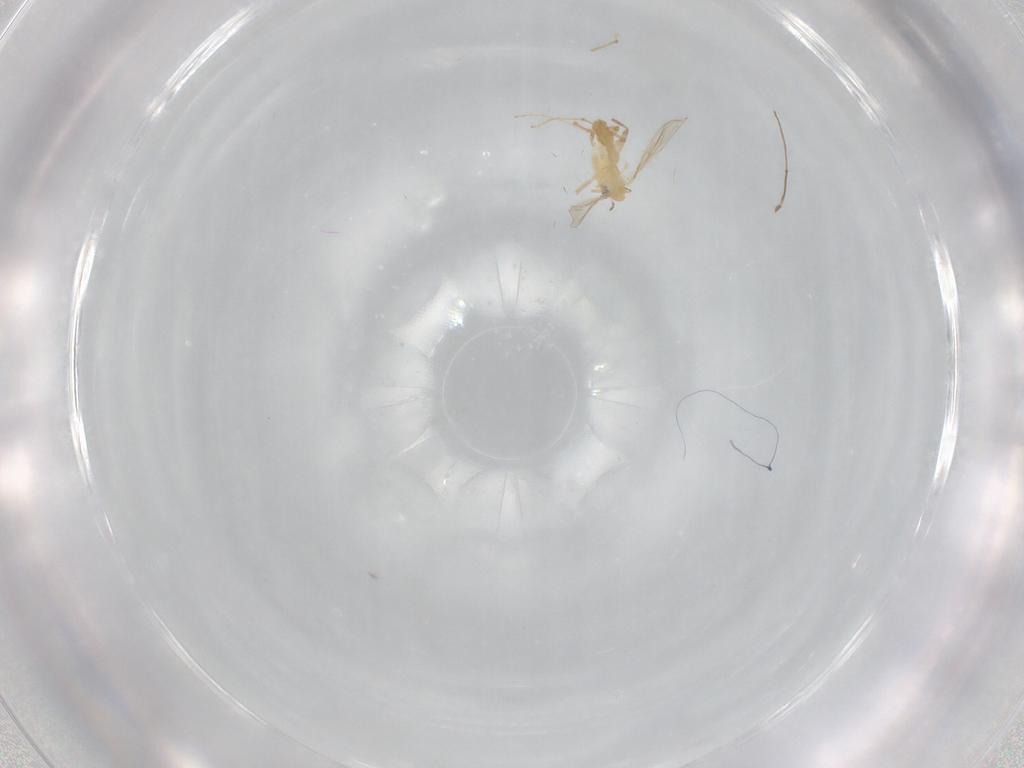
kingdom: Animalia
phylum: Arthropoda
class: Insecta
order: Diptera
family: Chironomidae
